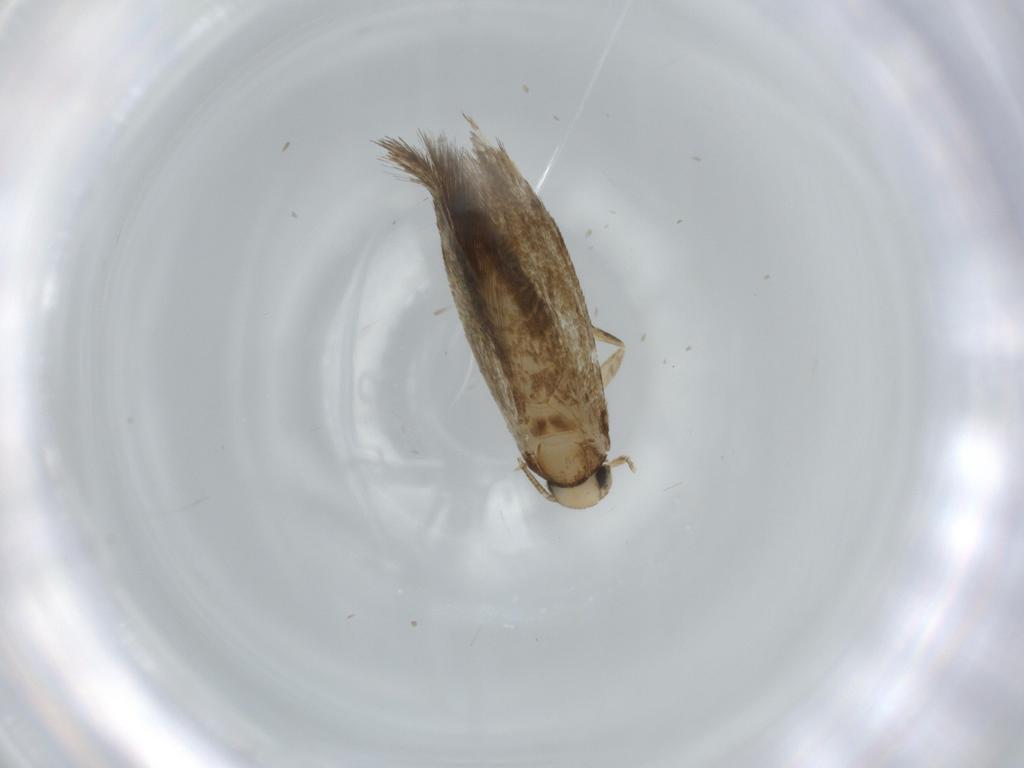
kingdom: Animalia
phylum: Arthropoda
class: Insecta
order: Lepidoptera
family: Tineidae
